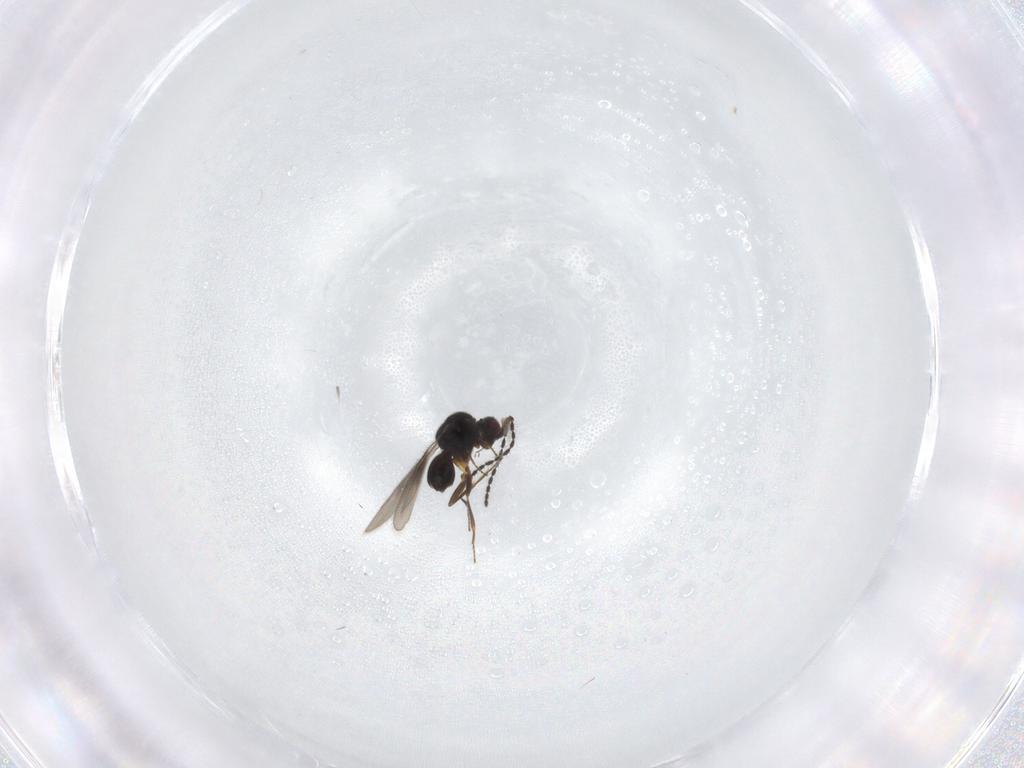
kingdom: Animalia
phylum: Arthropoda
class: Insecta
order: Hymenoptera
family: Ceraphronidae
